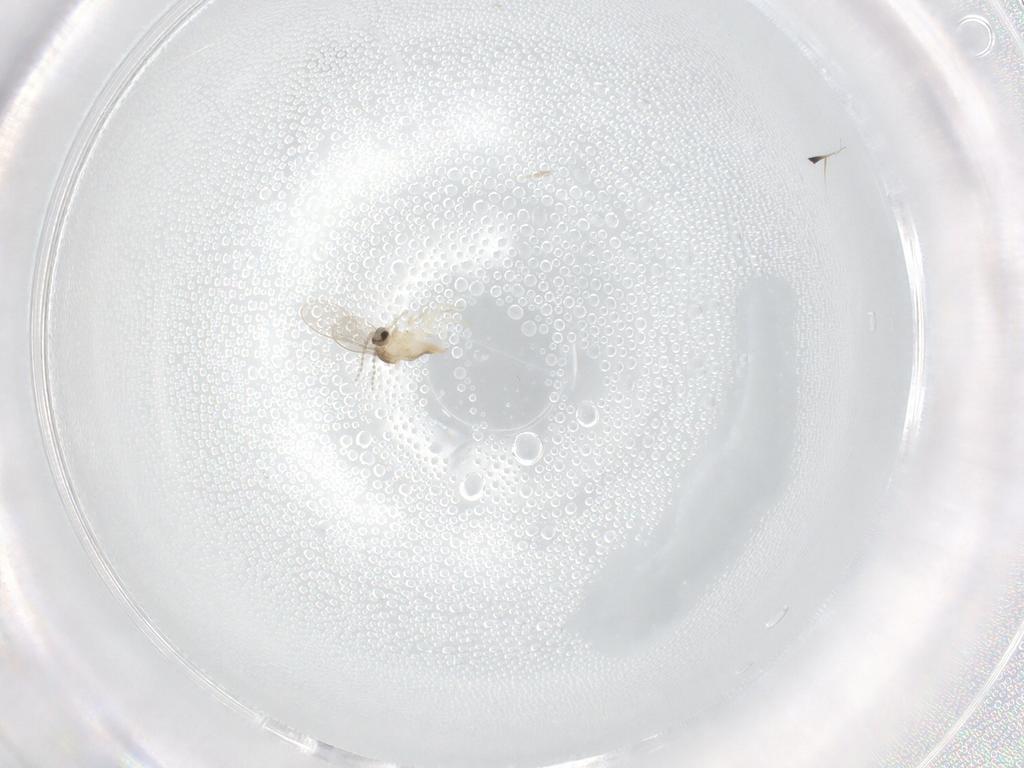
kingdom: Animalia
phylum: Arthropoda
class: Insecta
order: Diptera
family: Cecidomyiidae
